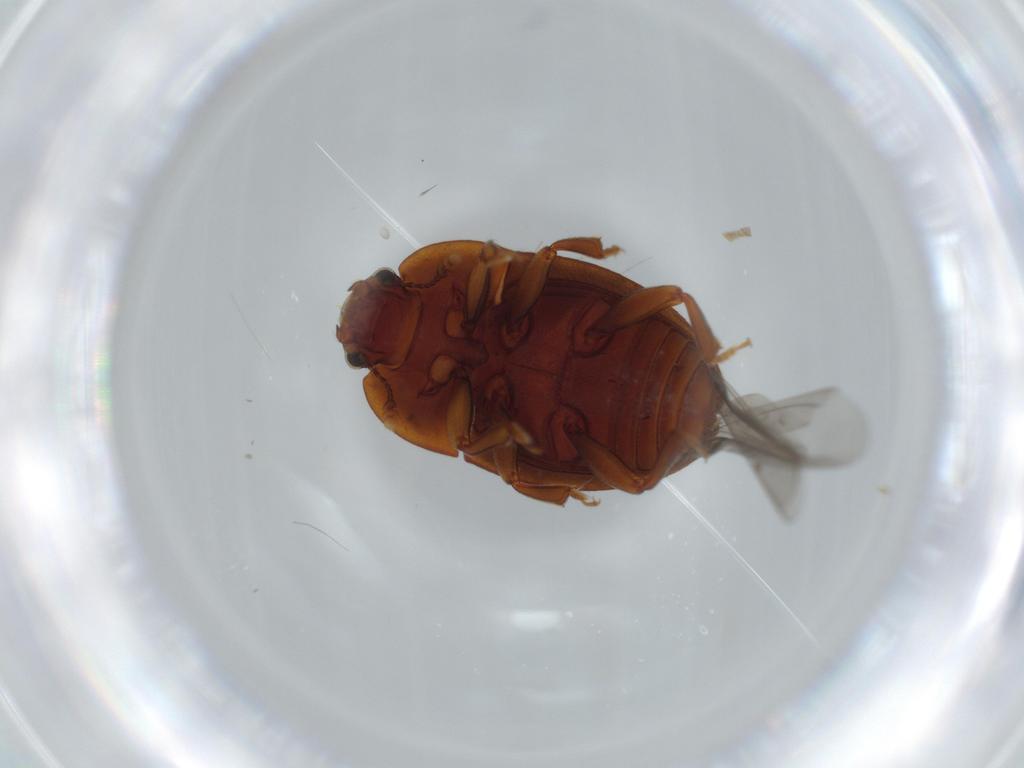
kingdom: Animalia
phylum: Arthropoda
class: Insecta
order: Coleoptera
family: Nitidulidae
